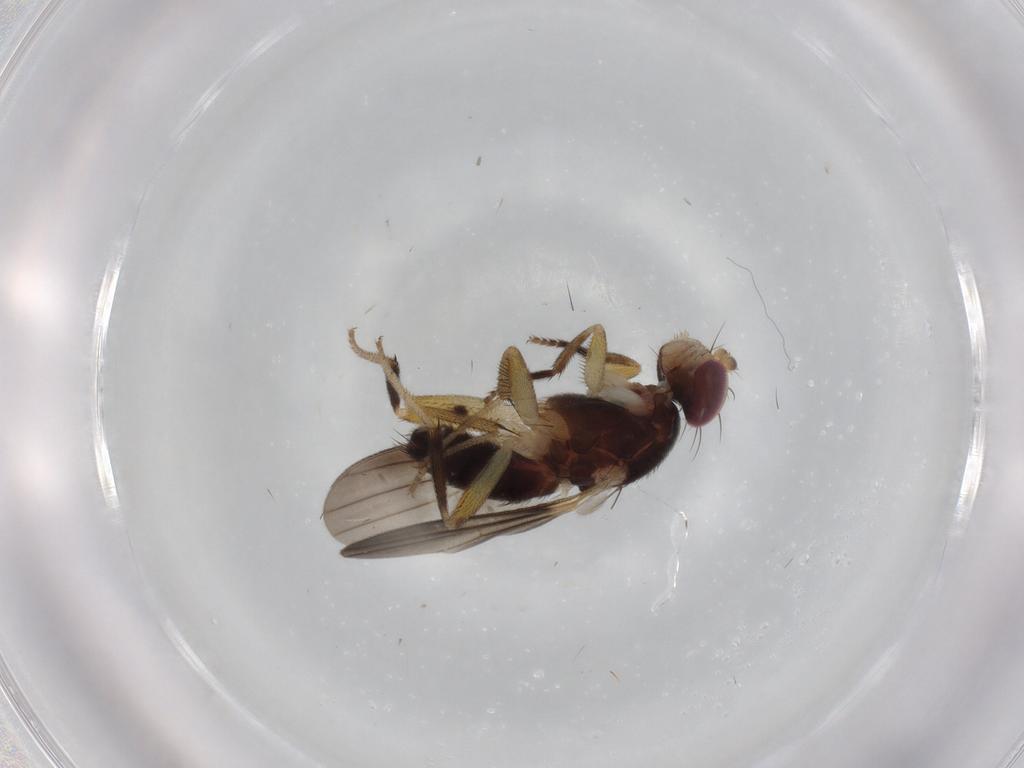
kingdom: Animalia
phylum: Arthropoda
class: Insecta
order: Diptera
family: Clusiidae
